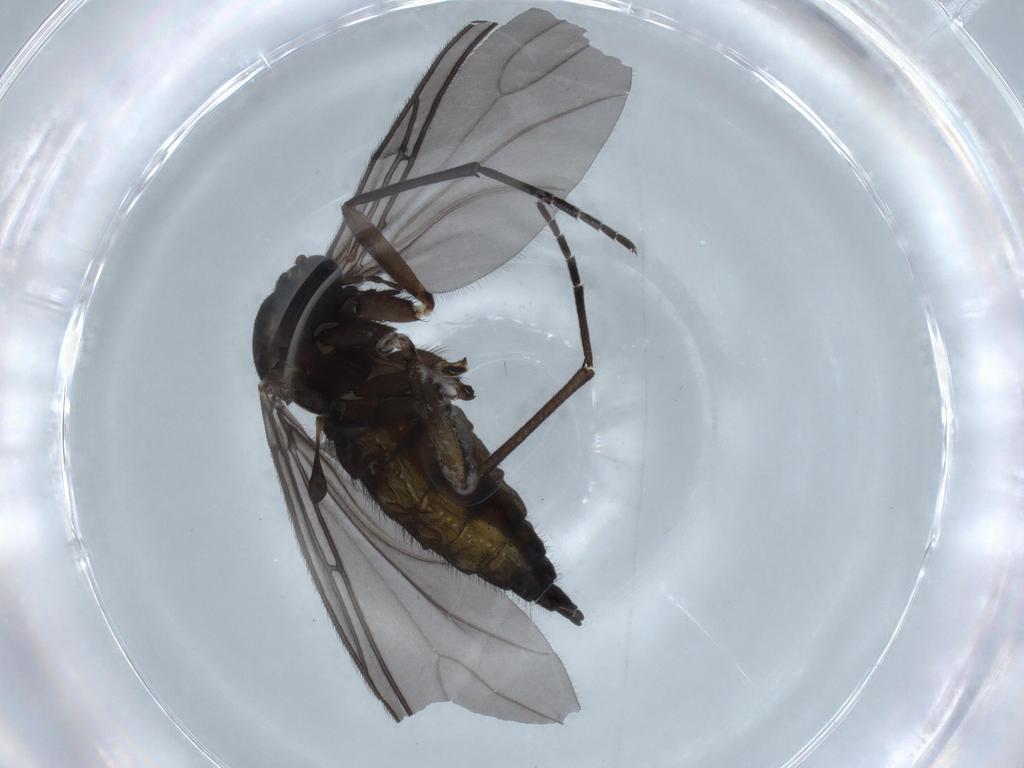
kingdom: Animalia
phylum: Arthropoda
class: Insecta
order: Diptera
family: Sciaridae
